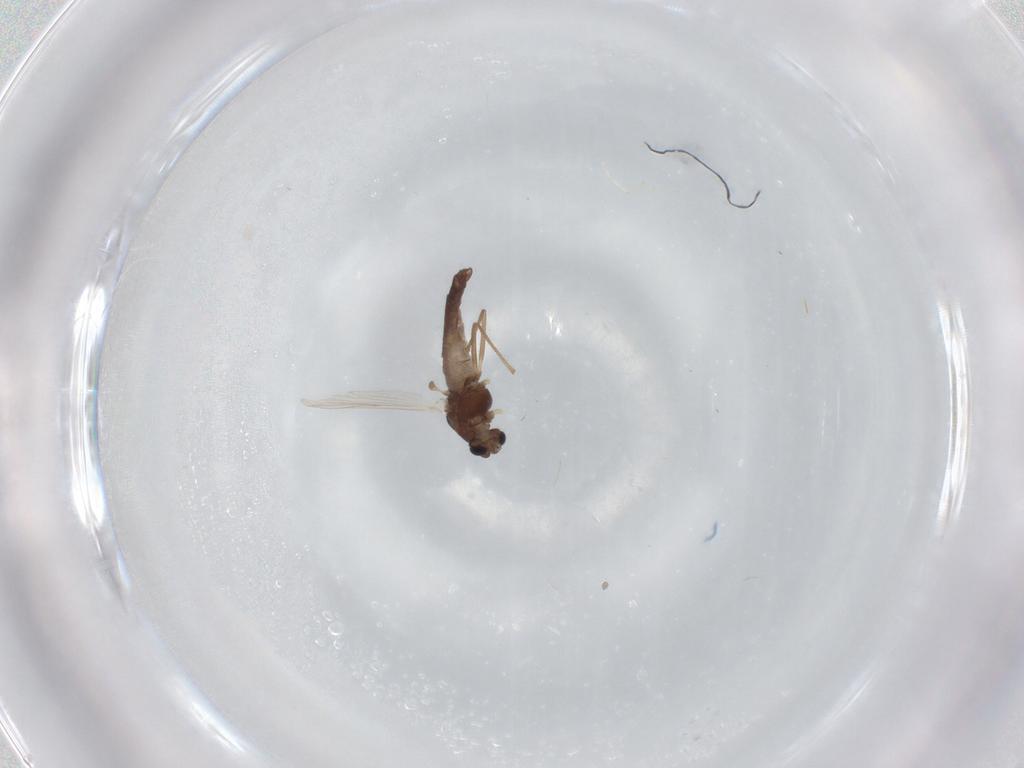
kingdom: Animalia
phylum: Arthropoda
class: Insecta
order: Diptera
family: Chironomidae
